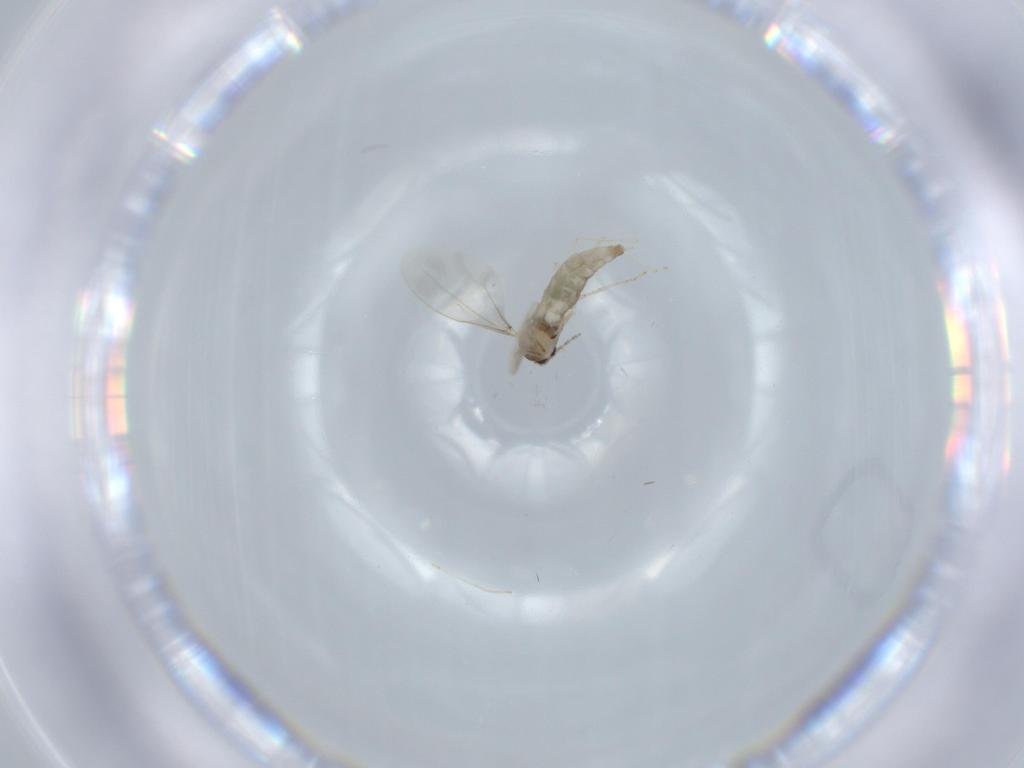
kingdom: Animalia
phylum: Arthropoda
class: Insecta
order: Diptera
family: Cecidomyiidae
